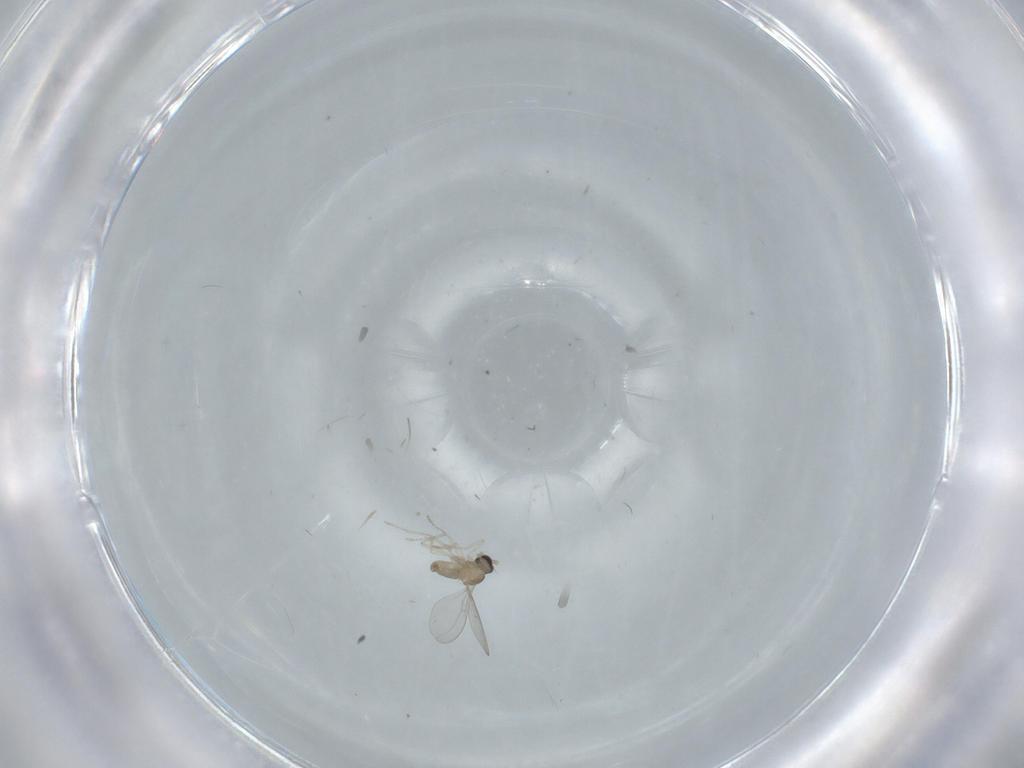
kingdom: Animalia
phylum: Arthropoda
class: Insecta
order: Diptera
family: Cecidomyiidae
